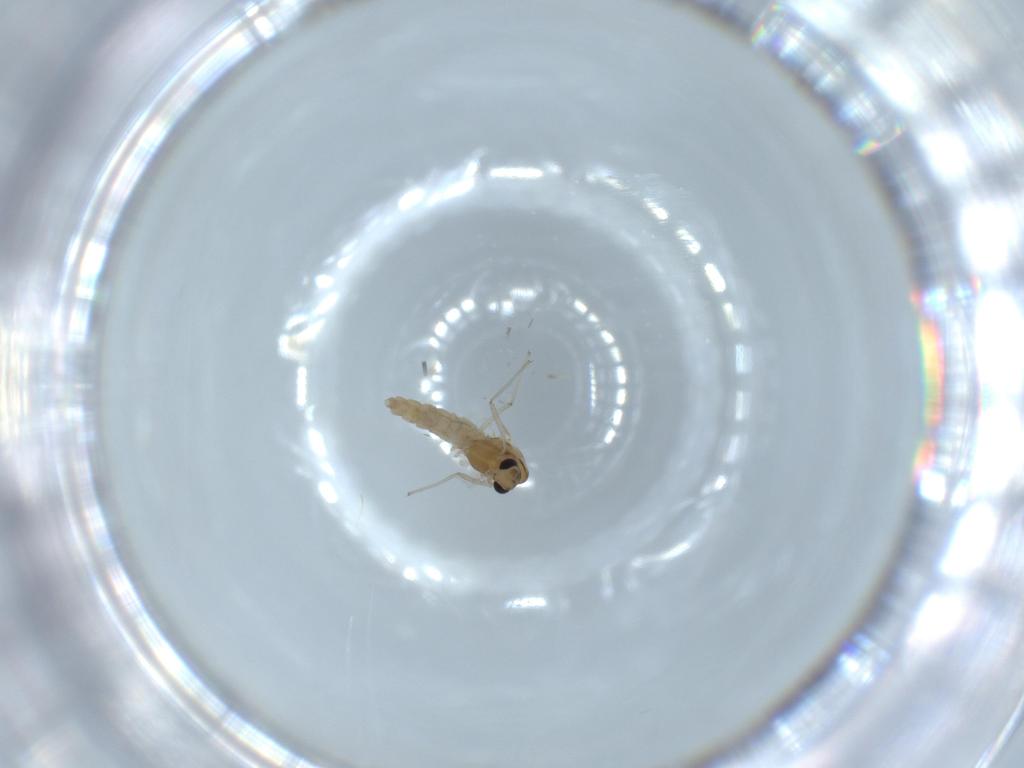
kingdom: Animalia
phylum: Arthropoda
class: Insecta
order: Diptera
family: Chironomidae
